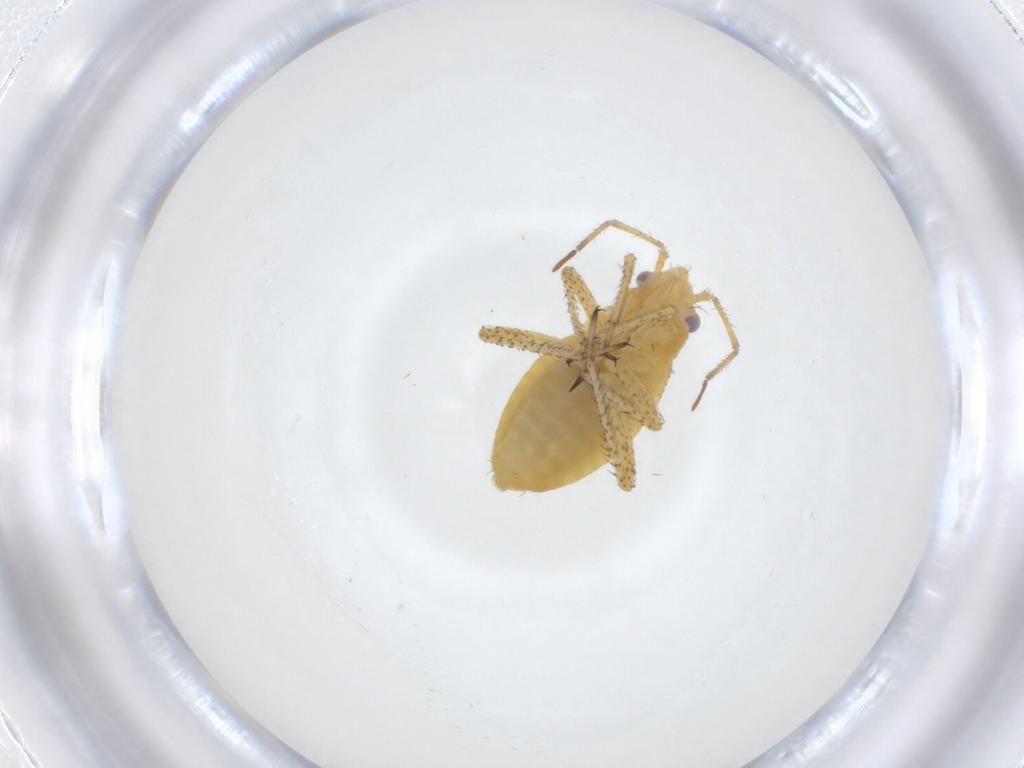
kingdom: Animalia
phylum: Arthropoda
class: Insecta
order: Hemiptera
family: Miridae
